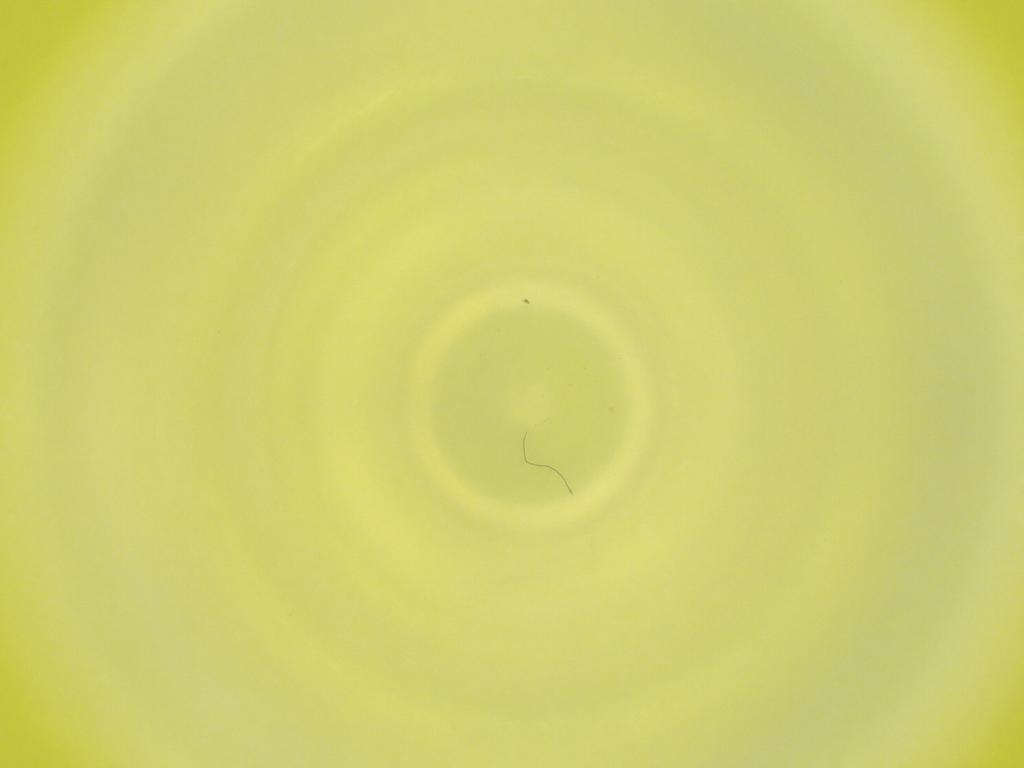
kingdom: Animalia
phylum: Arthropoda
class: Insecta
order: Diptera
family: Cecidomyiidae
